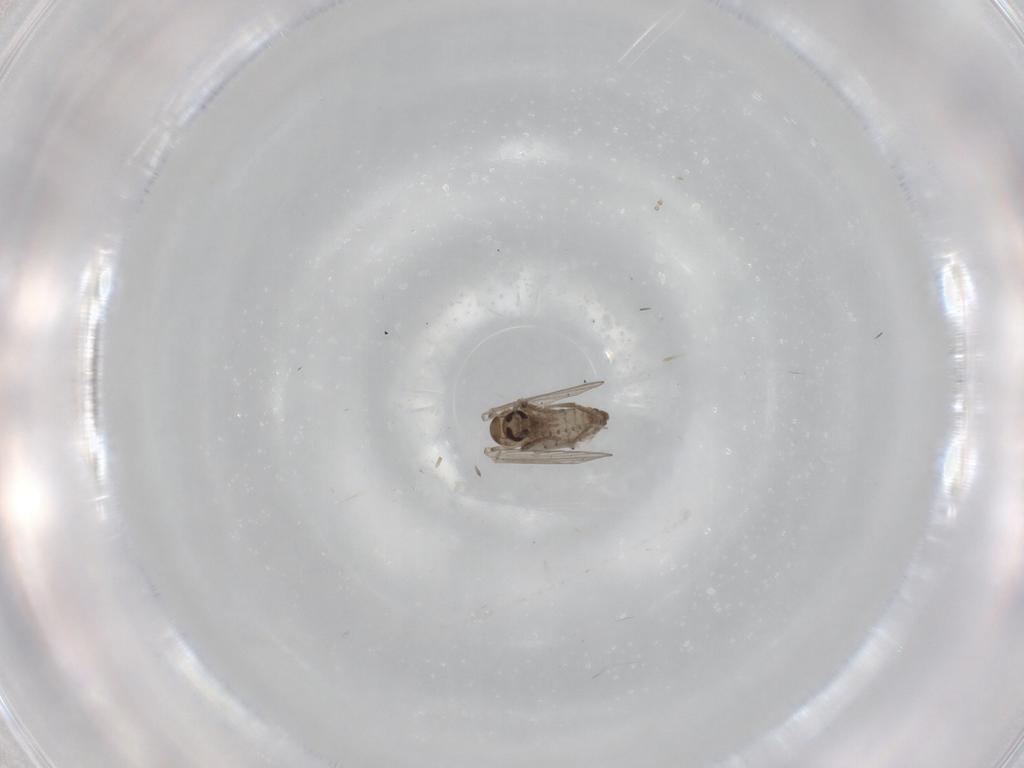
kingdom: Animalia
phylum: Arthropoda
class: Insecta
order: Diptera
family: Psychodidae
